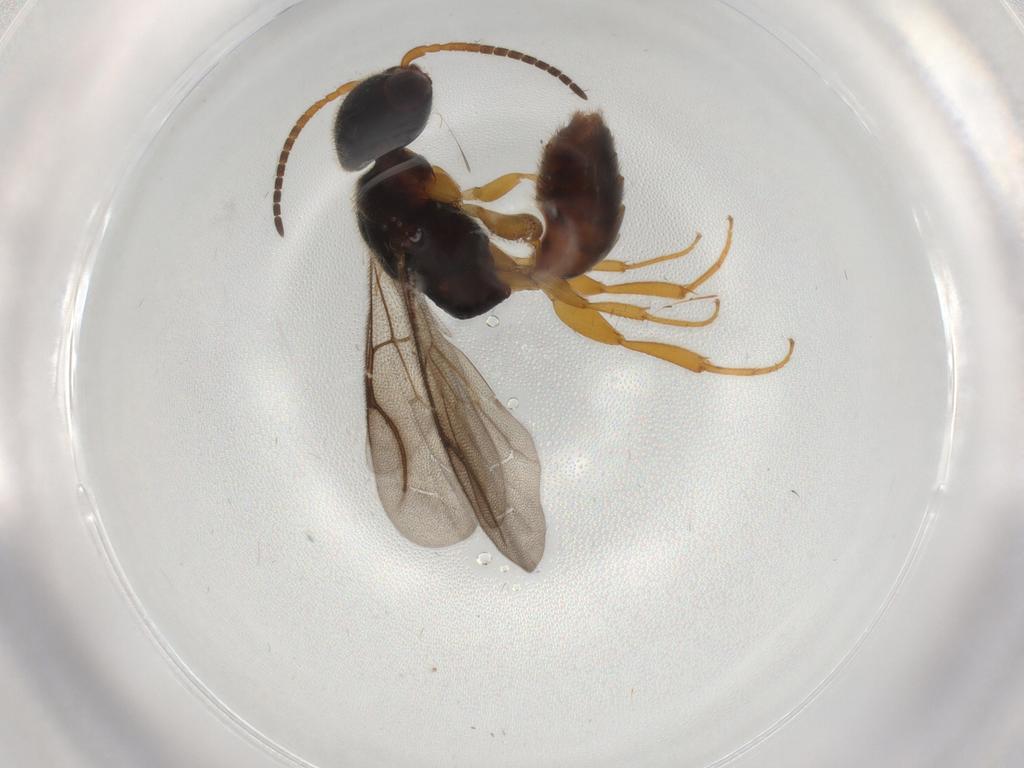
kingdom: Animalia
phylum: Arthropoda
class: Insecta
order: Hymenoptera
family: Bethylidae
